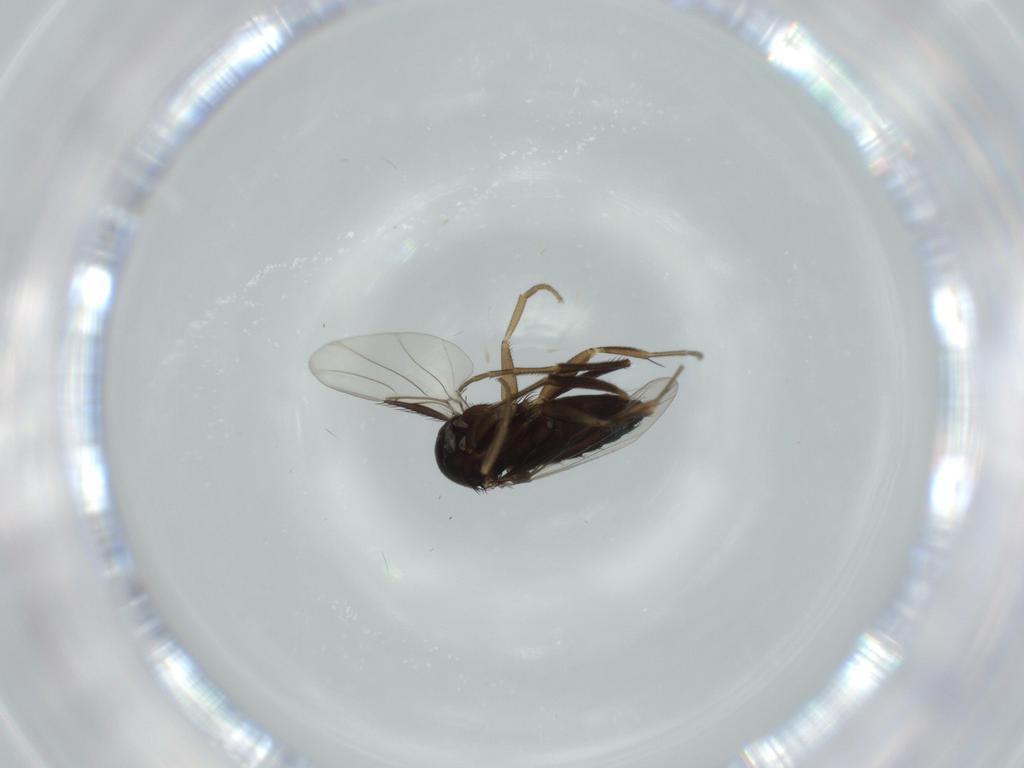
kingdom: Animalia
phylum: Arthropoda
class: Insecta
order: Diptera
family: Phoridae
